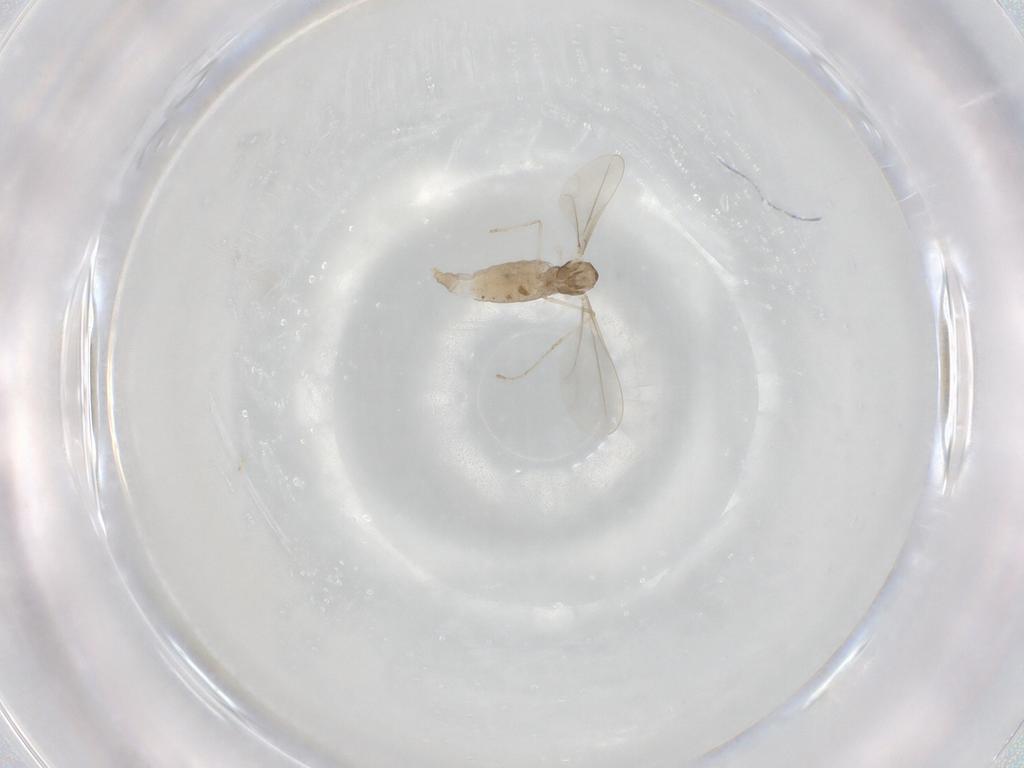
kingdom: Animalia
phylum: Arthropoda
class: Insecta
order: Diptera
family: Cecidomyiidae
